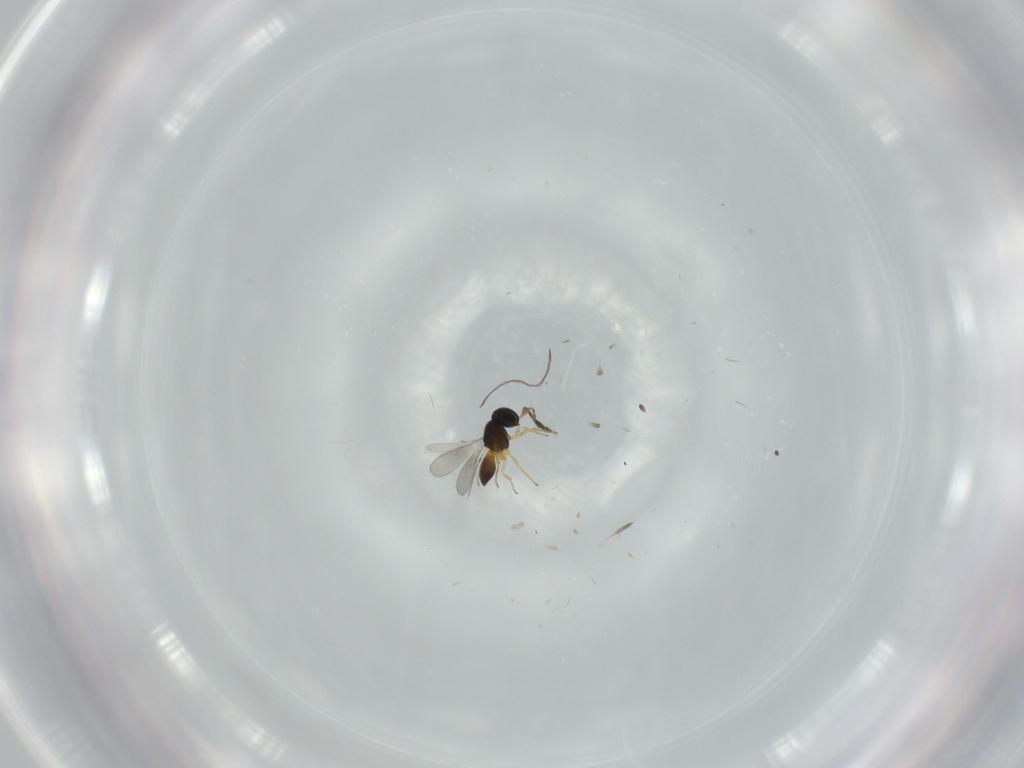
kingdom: Animalia
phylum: Arthropoda
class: Insecta
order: Hymenoptera
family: Scelionidae
